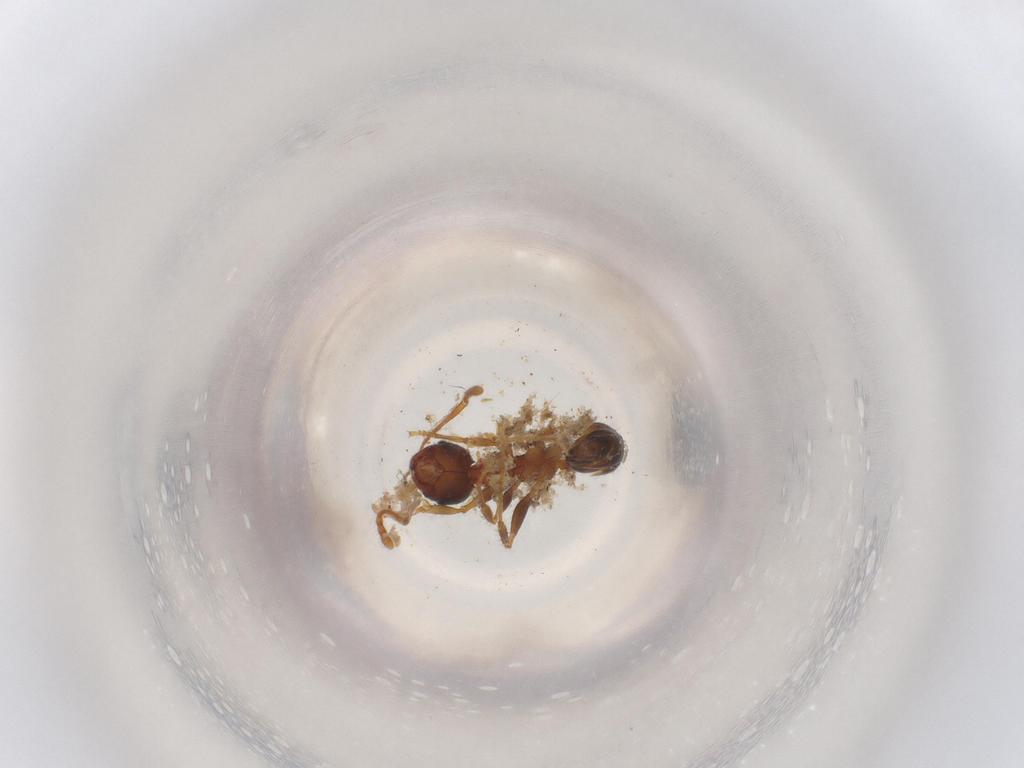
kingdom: Animalia
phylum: Arthropoda
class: Insecta
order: Hymenoptera
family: Formicidae
